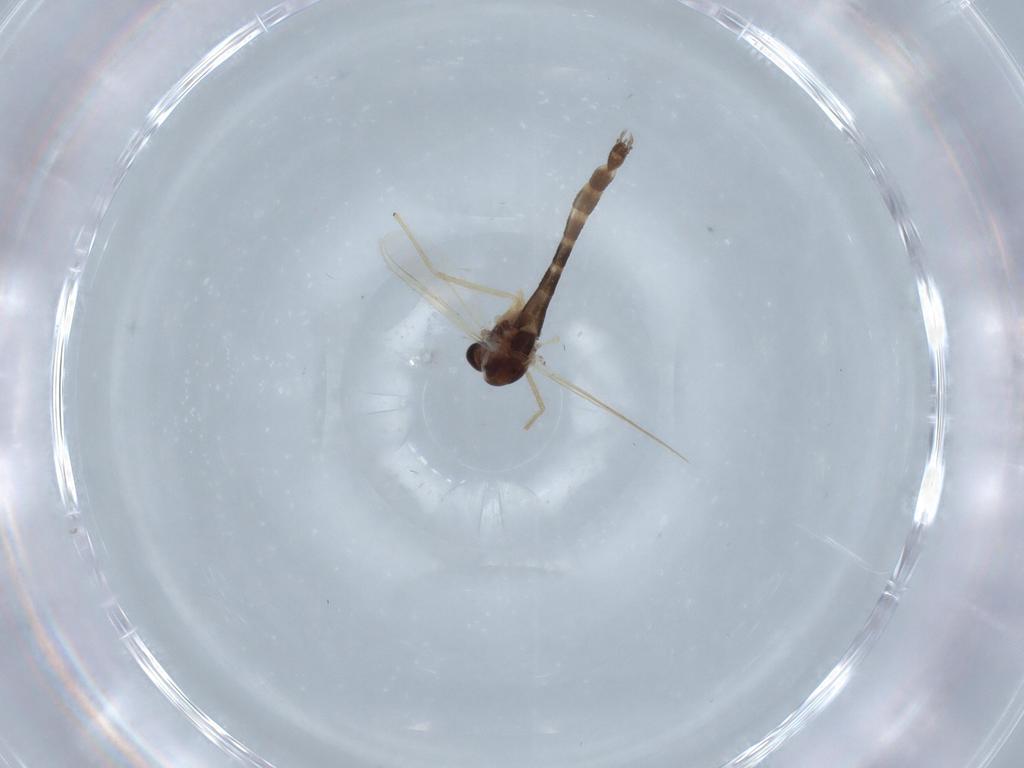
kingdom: Animalia
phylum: Arthropoda
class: Insecta
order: Diptera
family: Chironomidae
